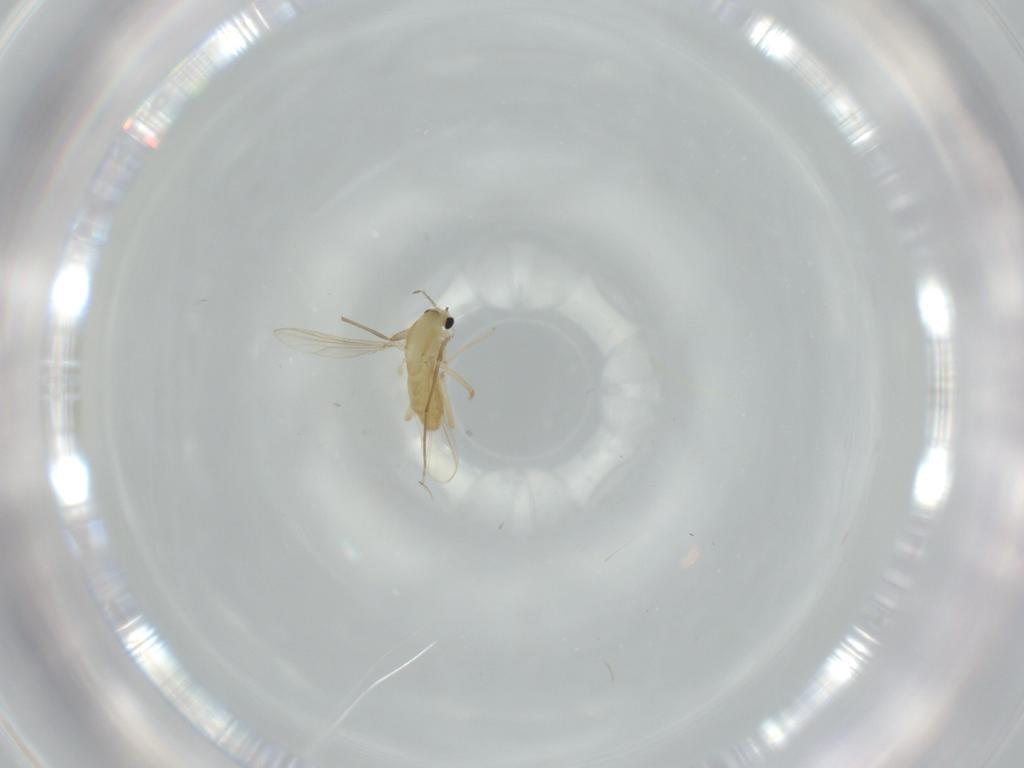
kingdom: Animalia
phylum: Arthropoda
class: Insecta
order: Diptera
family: Chironomidae
